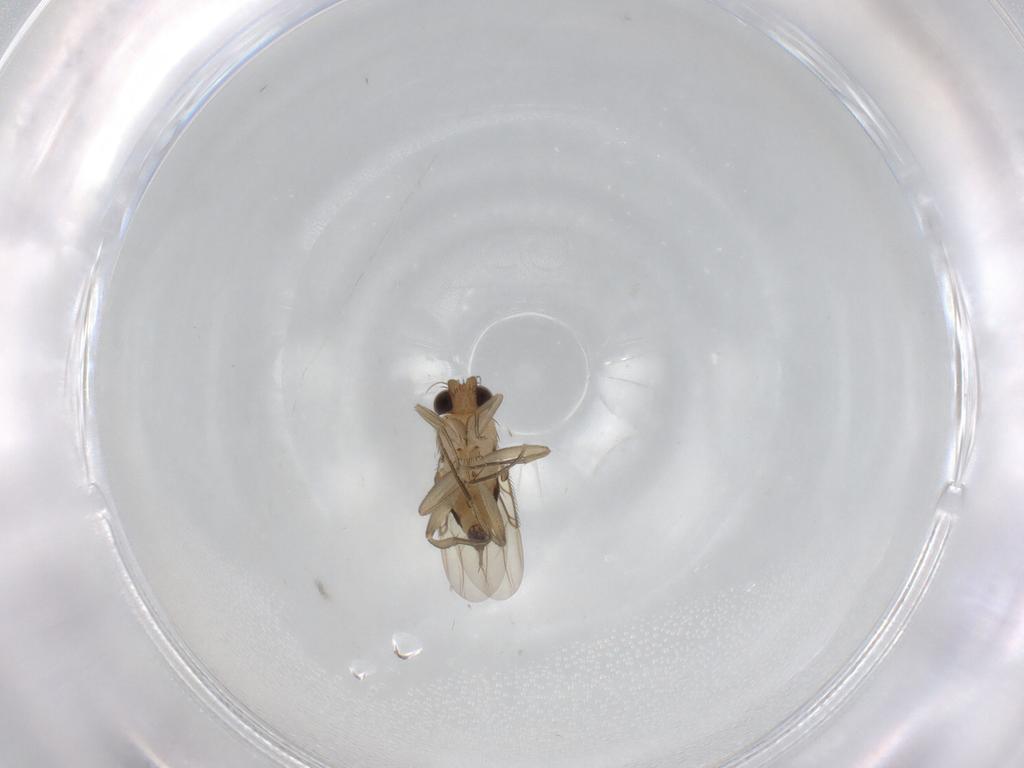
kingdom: Animalia
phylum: Arthropoda
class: Insecta
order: Diptera
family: Phoridae
